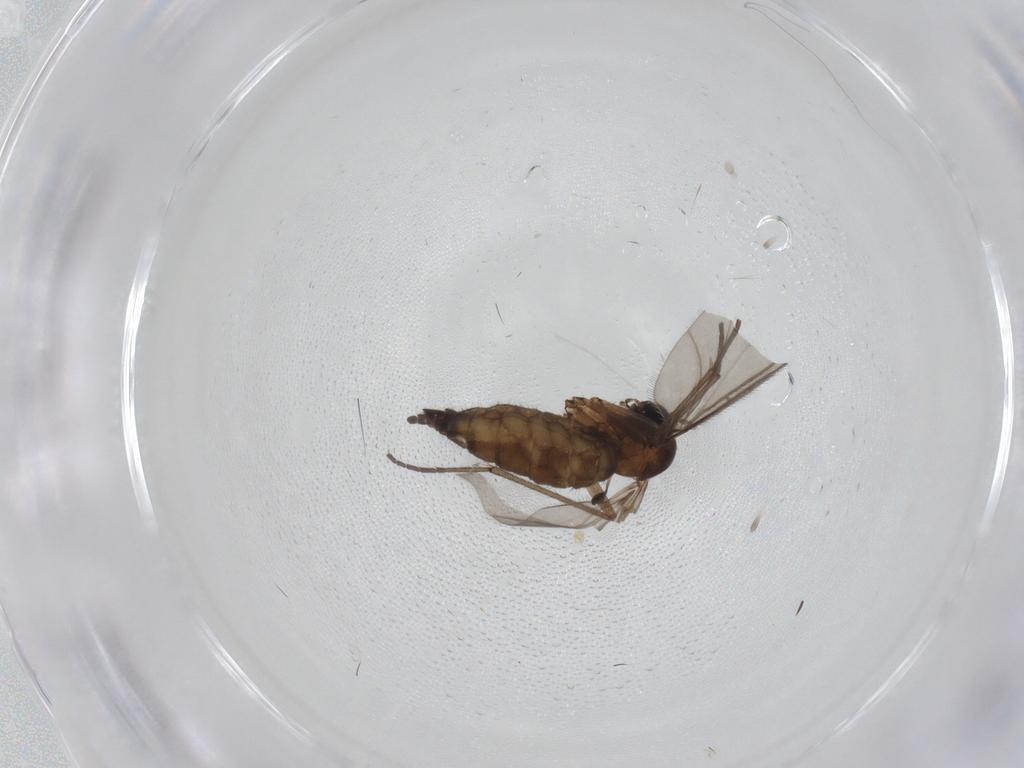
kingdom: Animalia
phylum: Arthropoda
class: Insecta
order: Diptera
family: Sciaridae
